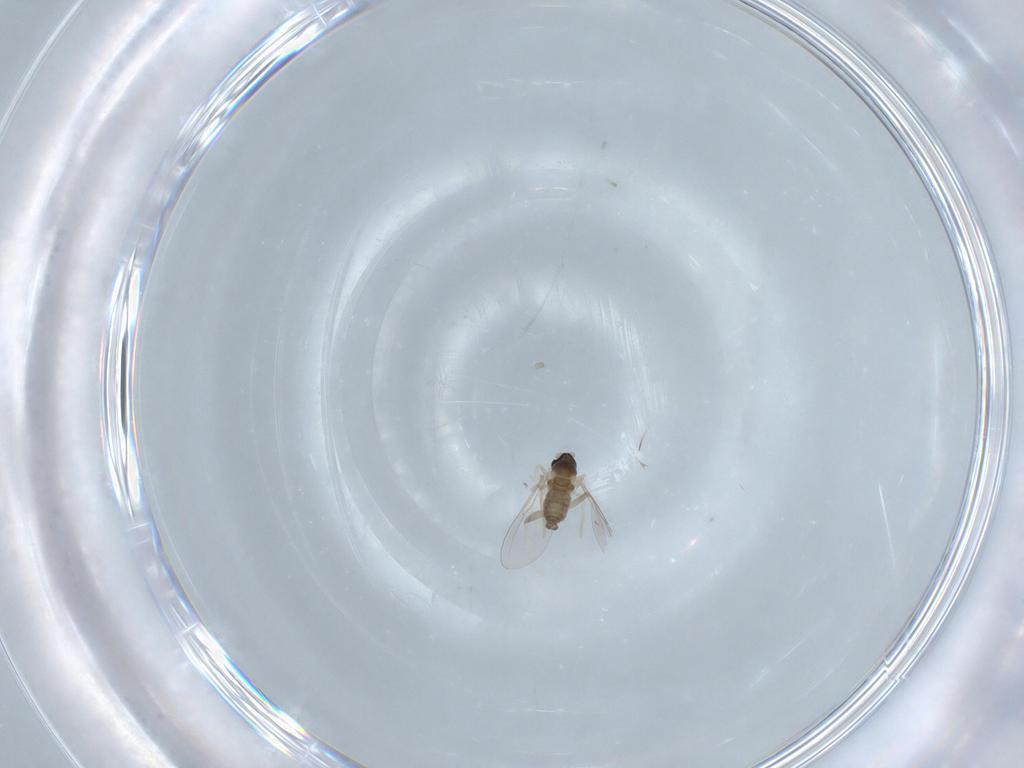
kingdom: Animalia
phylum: Arthropoda
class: Insecta
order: Diptera
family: Cecidomyiidae
